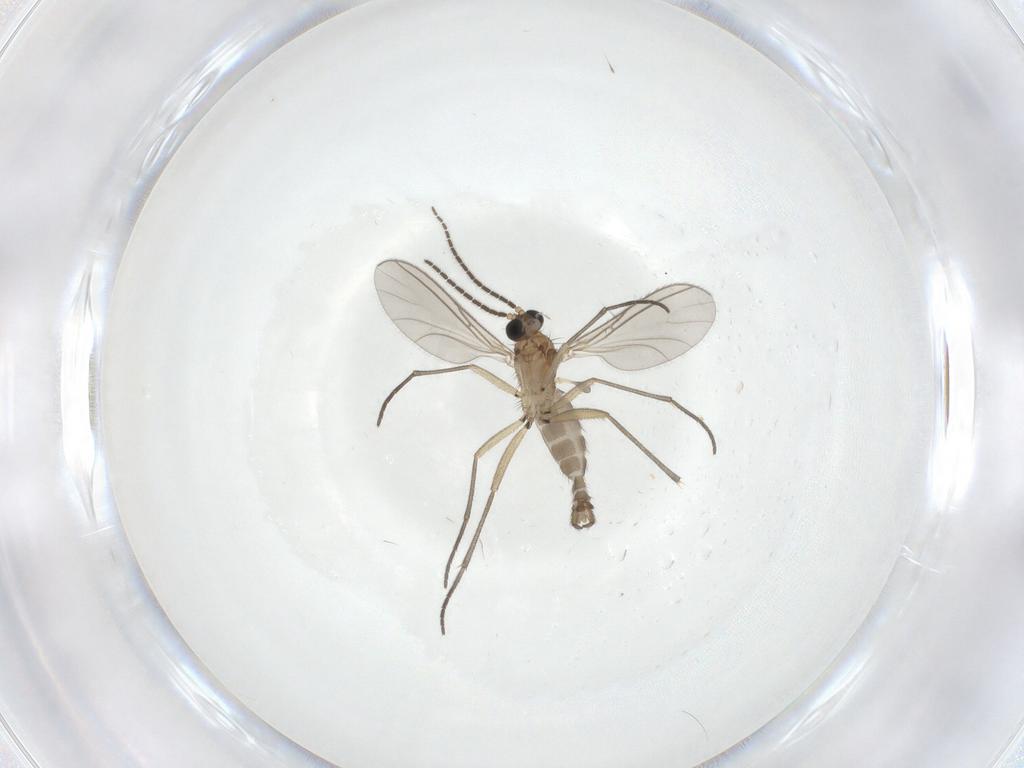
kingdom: Animalia
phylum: Arthropoda
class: Insecta
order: Diptera
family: Sciaridae
